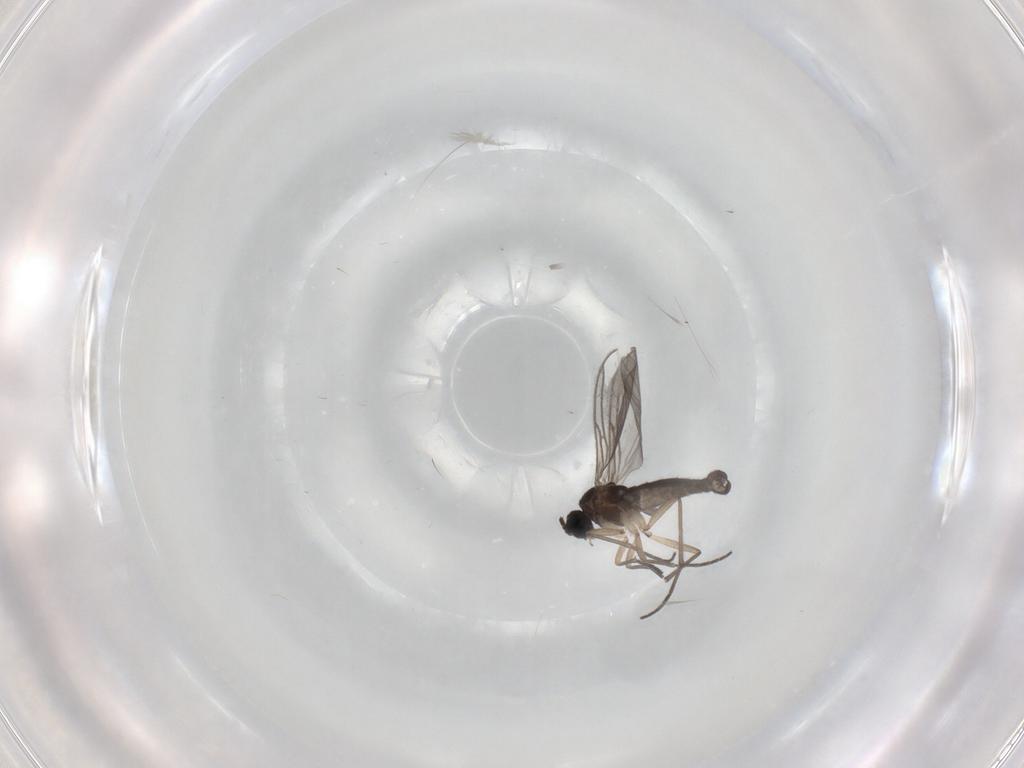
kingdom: Animalia
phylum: Arthropoda
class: Insecta
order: Diptera
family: Sciaridae
